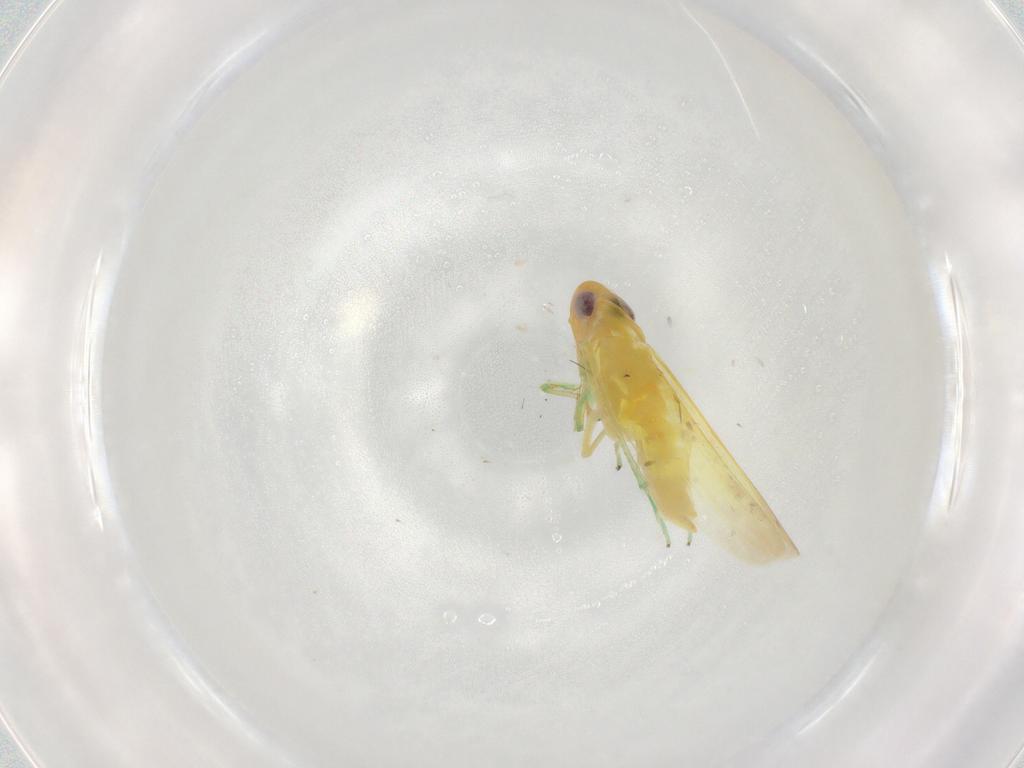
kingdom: Animalia
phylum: Arthropoda
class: Insecta
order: Hemiptera
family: Cicadellidae
